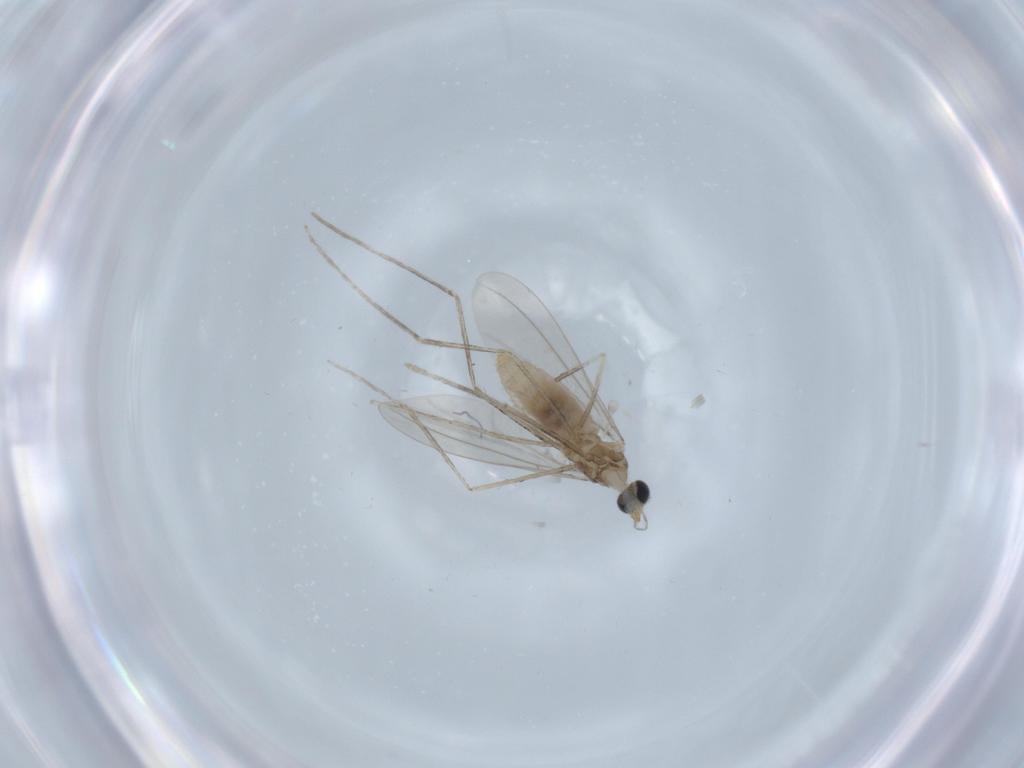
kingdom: Animalia
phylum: Arthropoda
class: Insecta
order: Diptera
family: Cecidomyiidae
